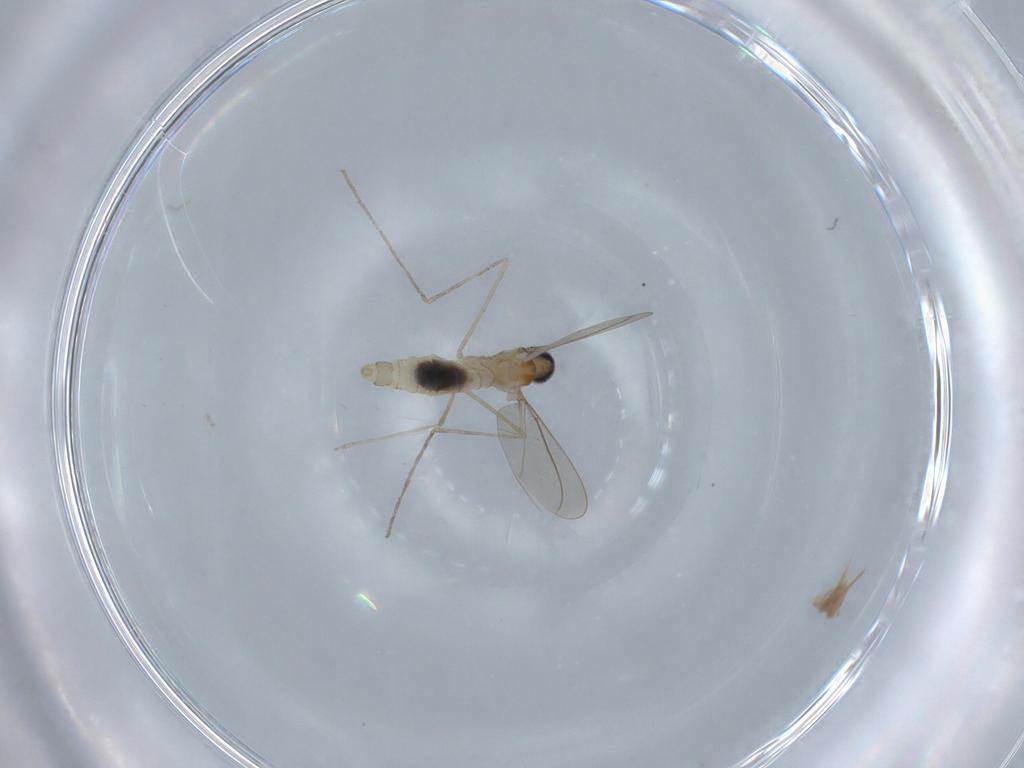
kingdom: Animalia
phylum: Arthropoda
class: Insecta
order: Diptera
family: Cecidomyiidae
